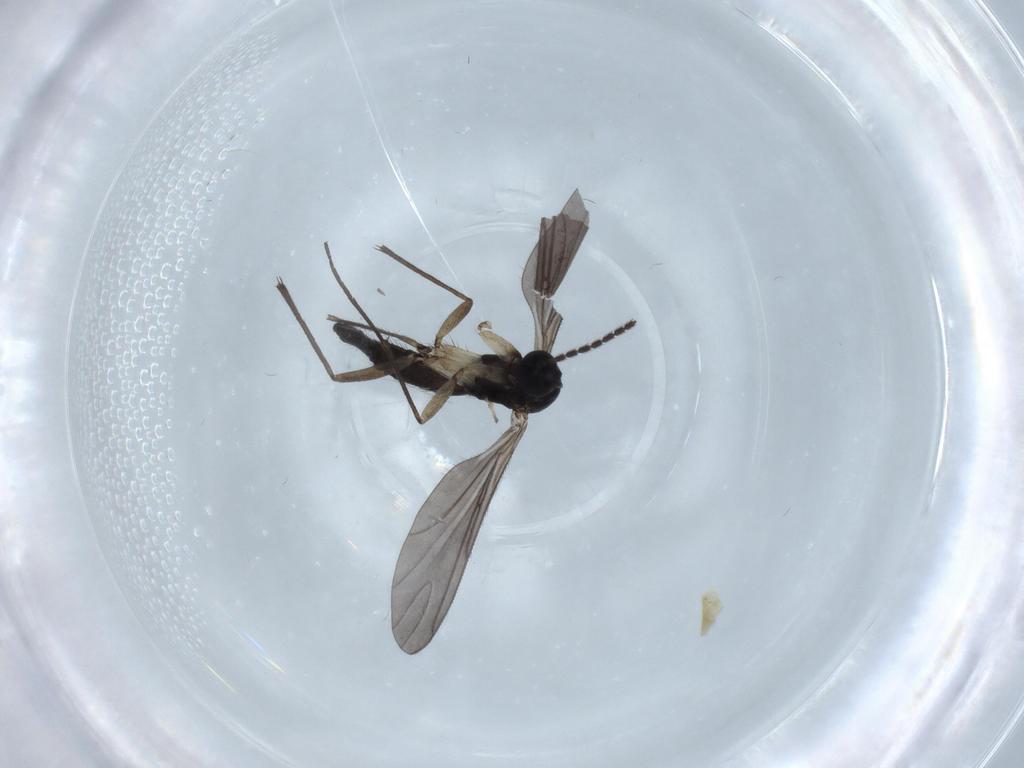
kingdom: Animalia
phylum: Arthropoda
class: Insecta
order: Diptera
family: Sciaridae
